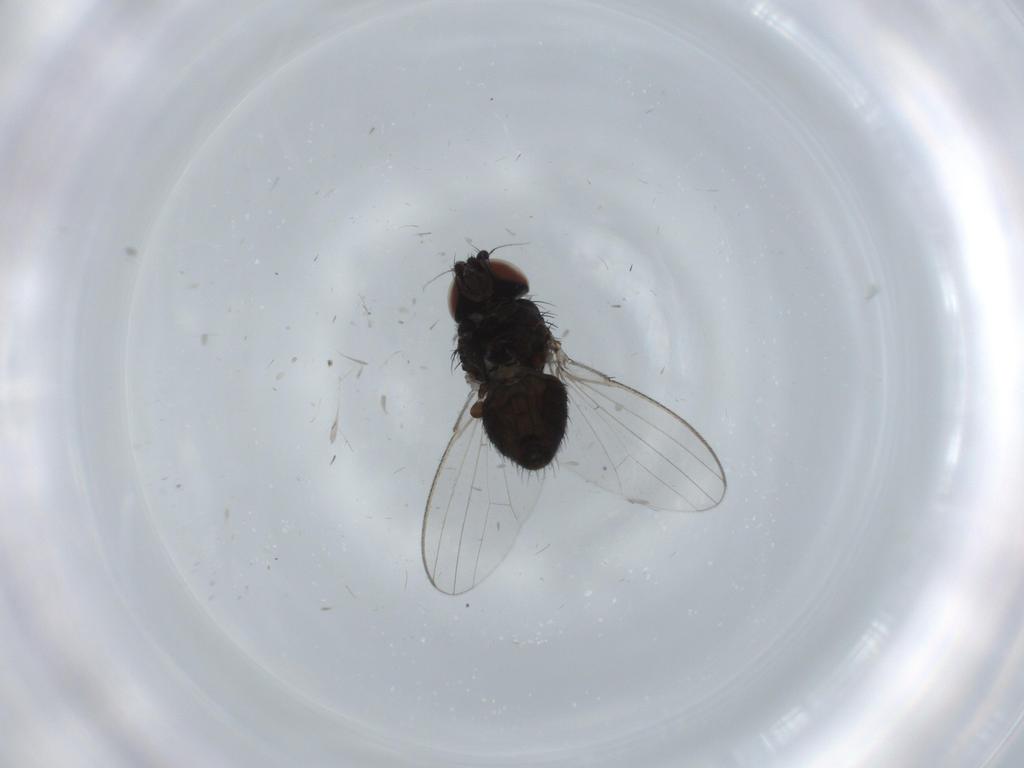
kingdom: Animalia
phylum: Arthropoda
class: Insecta
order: Diptera
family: Milichiidae
